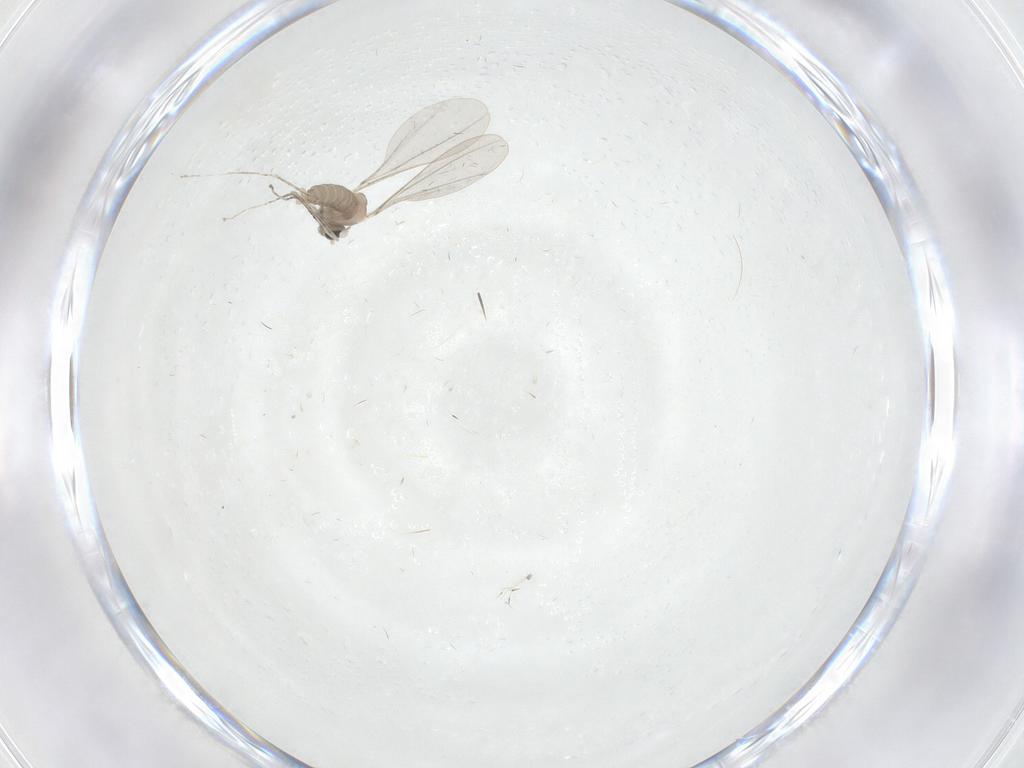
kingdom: Animalia
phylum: Arthropoda
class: Insecta
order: Diptera
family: Cecidomyiidae
